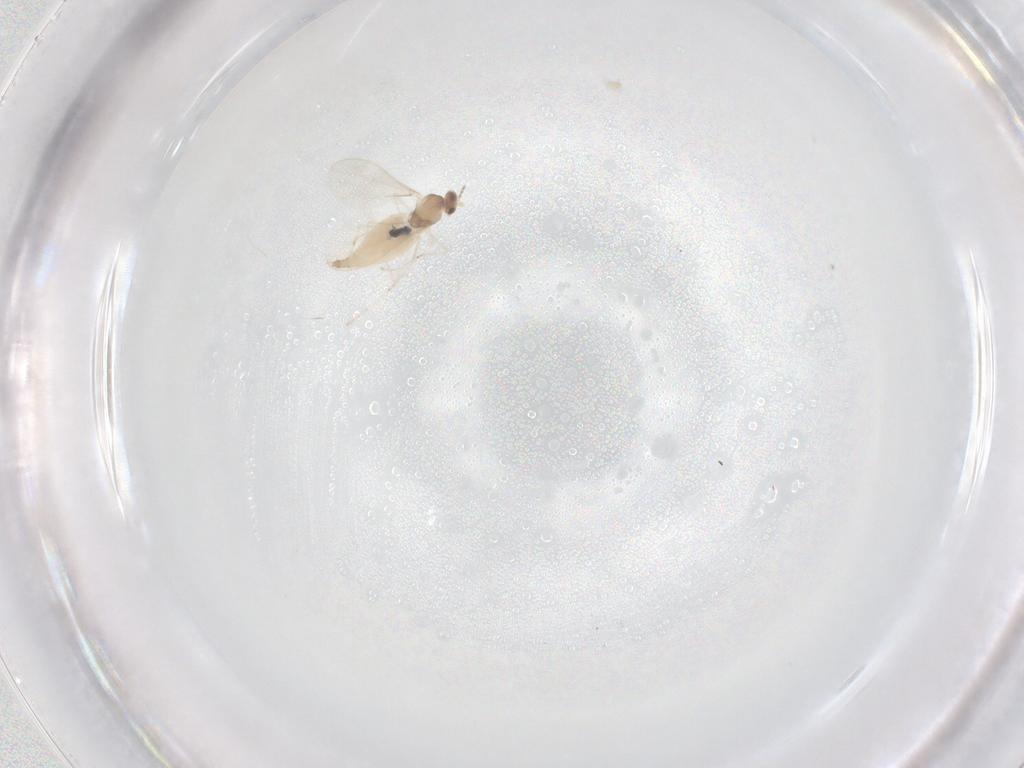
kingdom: Animalia
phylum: Arthropoda
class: Insecta
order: Diptera
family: Cecidomyiidae
